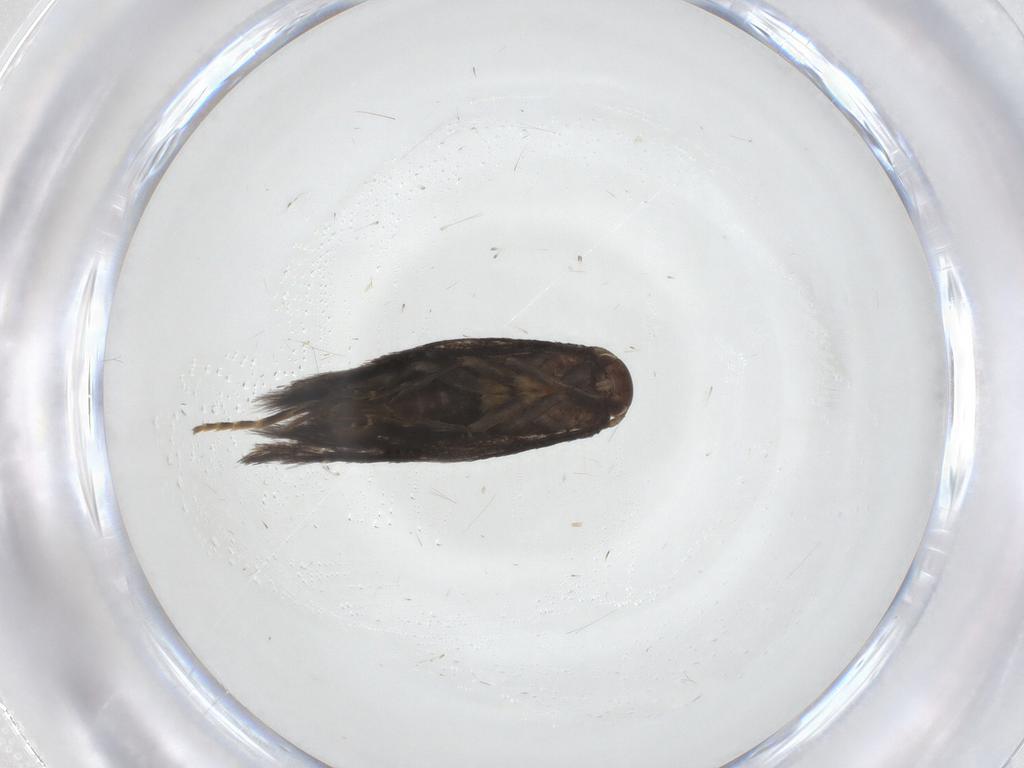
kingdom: Animalia
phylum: Arthropoda
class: Insecta
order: Lepidoptera
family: Elachistidae
